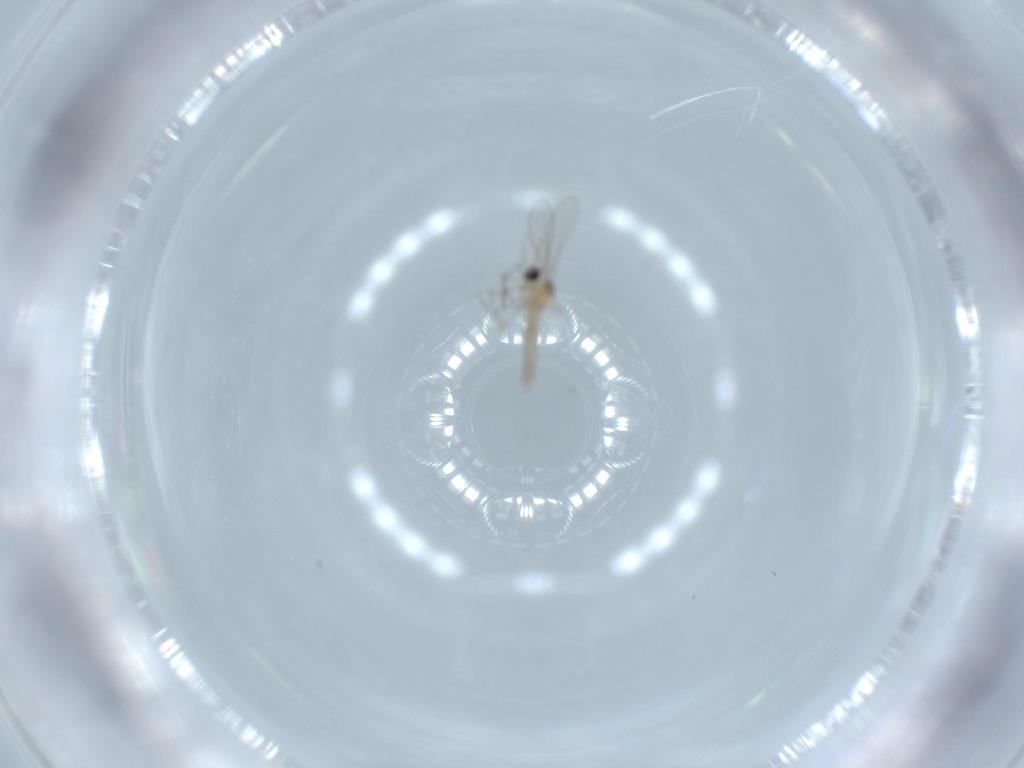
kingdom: Animalia
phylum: Arthropoda
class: Insecta
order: Diptera
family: Cecidomyiidae
